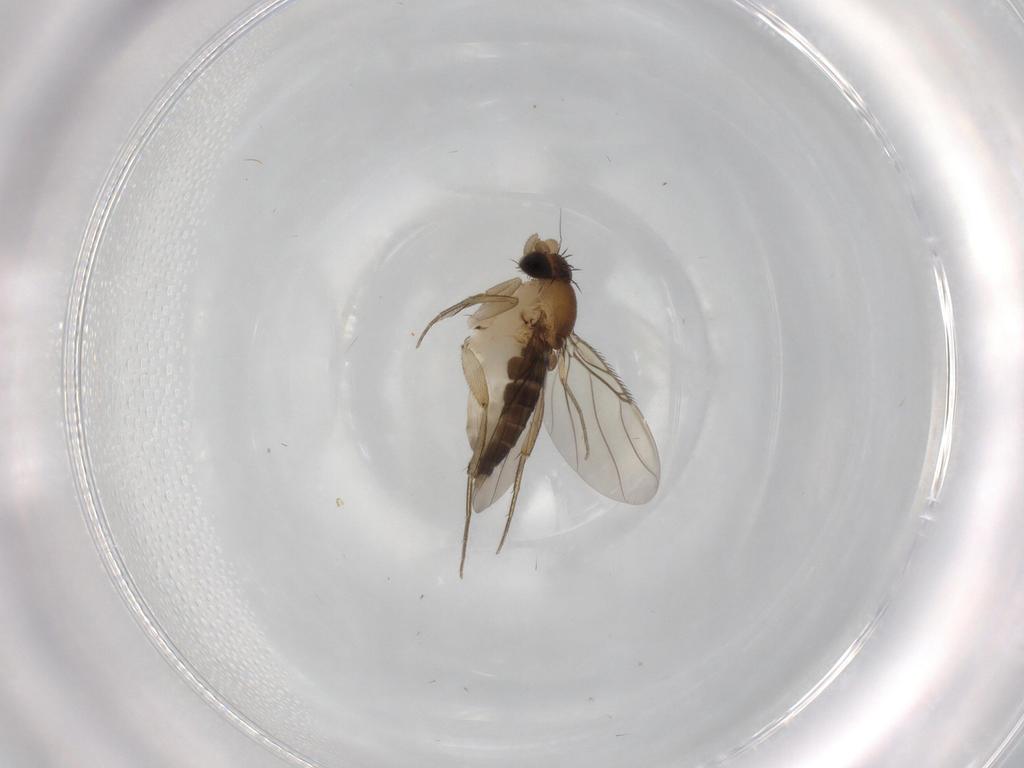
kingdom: Animalia
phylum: Arthropoda
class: Insecta
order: Diptera
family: Phoridae
